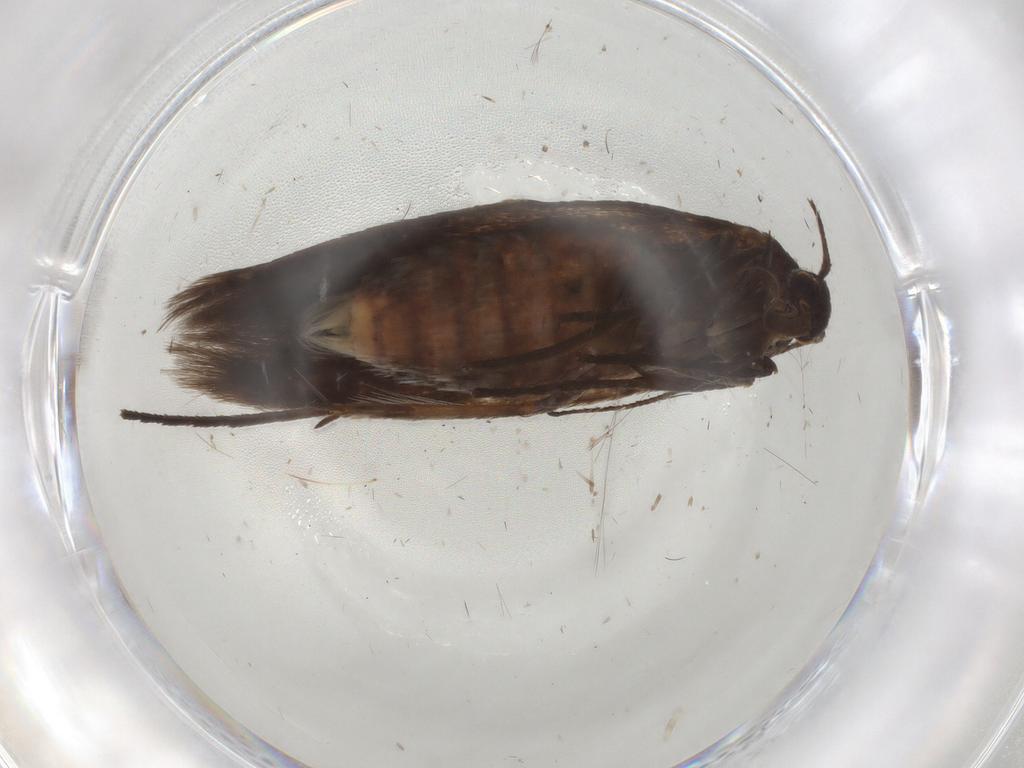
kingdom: Animalia
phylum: Arthropoda
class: Insecta
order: Lepidoptera
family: Scythrididae
